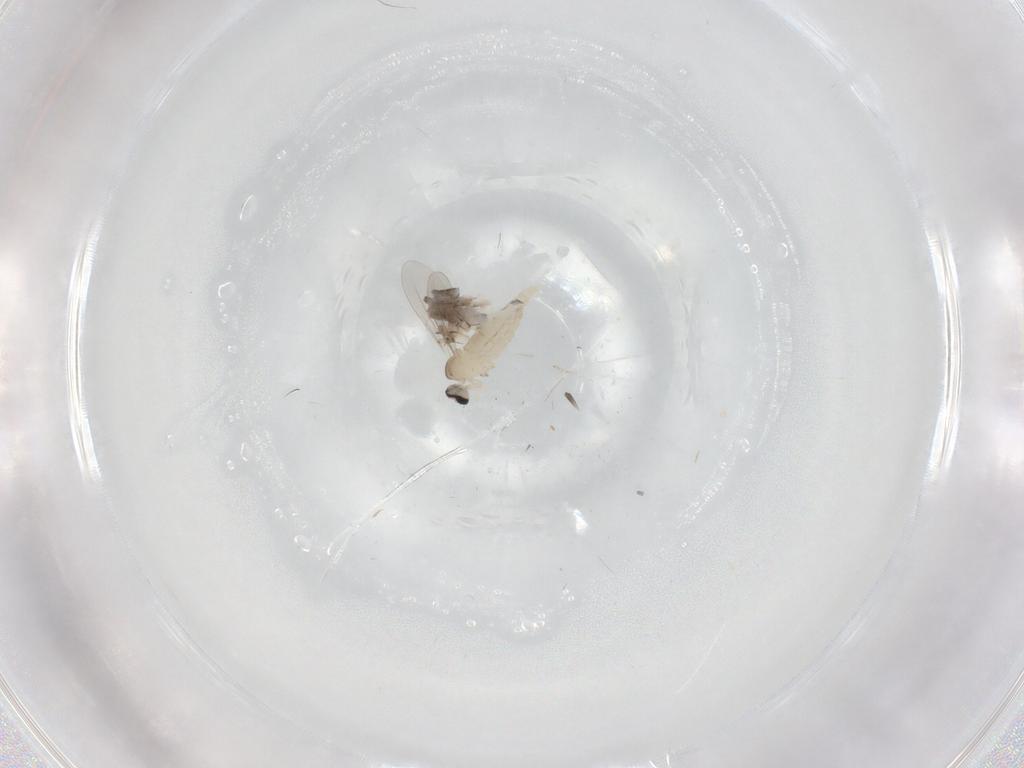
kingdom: Animalia
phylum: Arthropoda
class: Insecta
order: Diptera
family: Cecidomyiidae
